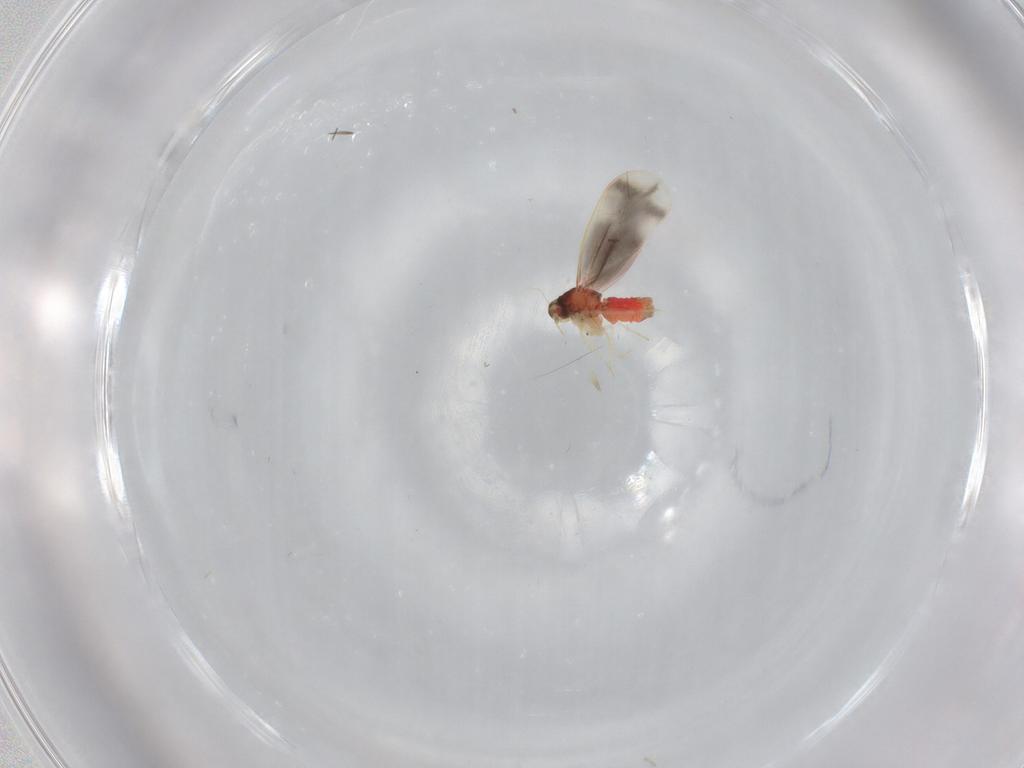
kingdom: Animalia
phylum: Arthropoda
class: Insecta
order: Hemiptera
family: Aleyrodidae
